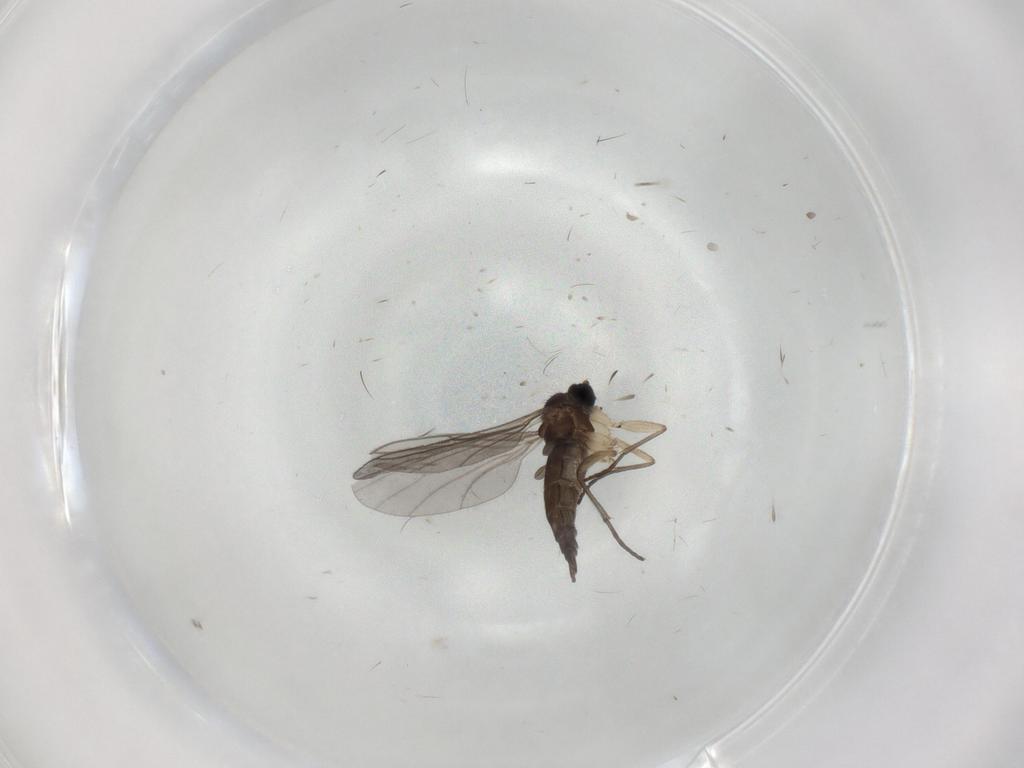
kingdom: Animalia
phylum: Arthropoda
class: Insecta
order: Diptera
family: Sciaridae
